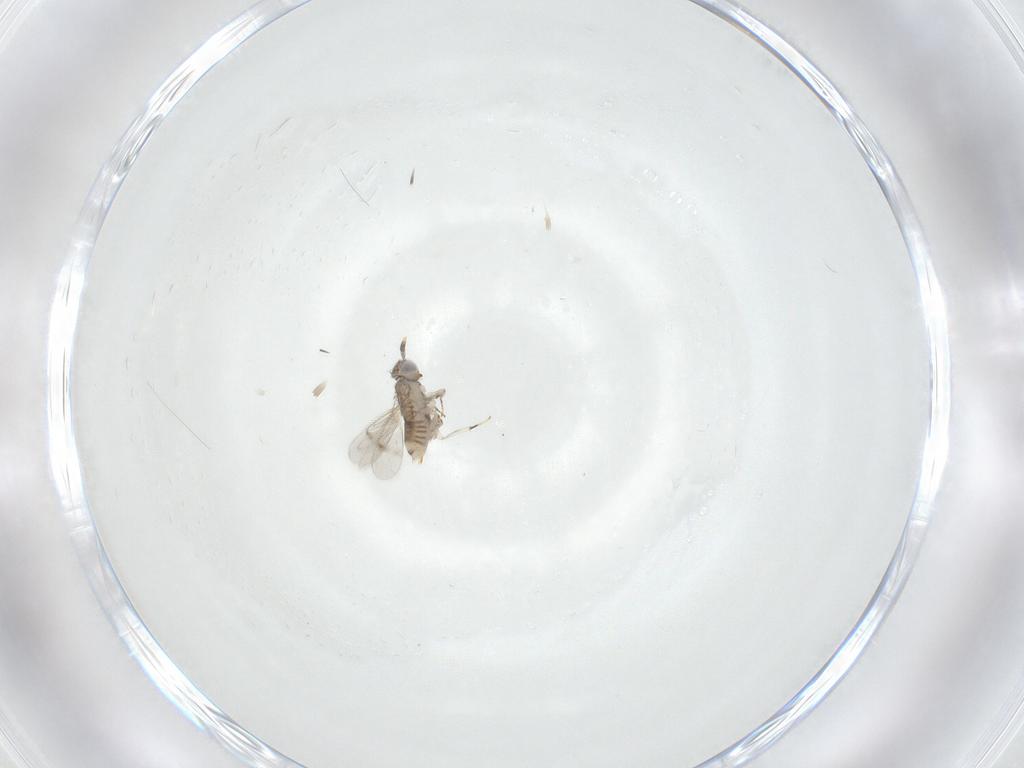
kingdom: Animalia
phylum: Arthropoda
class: Insecta
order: Hymenoptera
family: Aphelinidae
